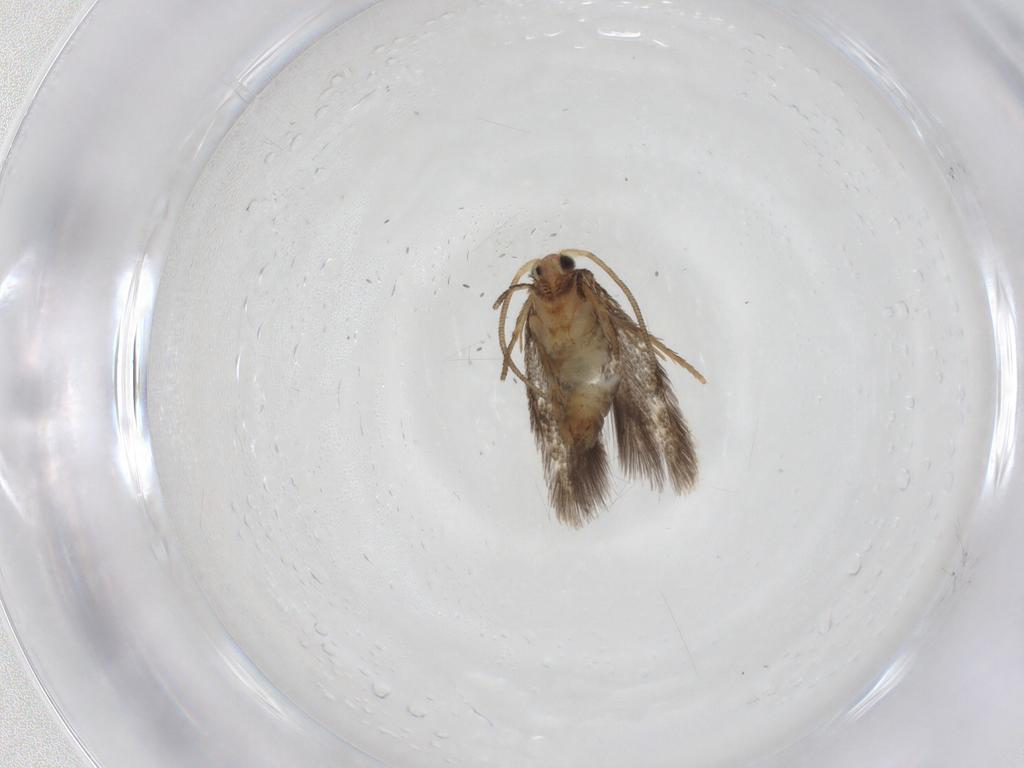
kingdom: Animalia
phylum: Arthropoda
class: Insecta
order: Lepidoptera
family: Nepticulidae
